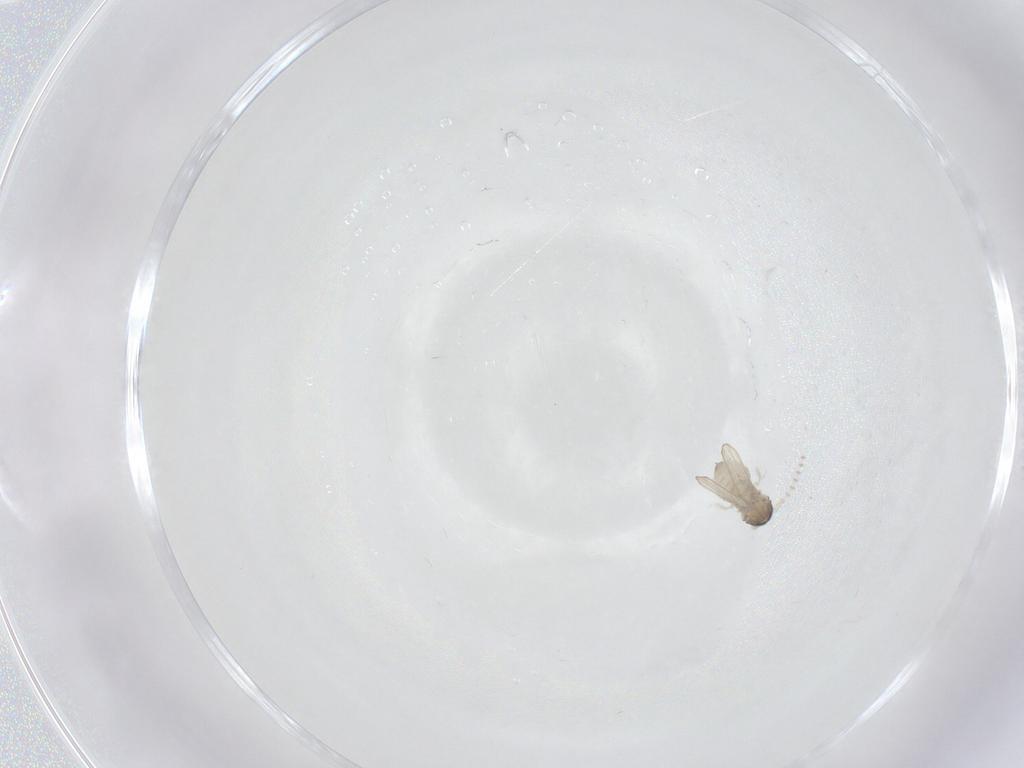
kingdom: Animalia
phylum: Arthropoda
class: Insecta
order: Diptera
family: Psychodidae
